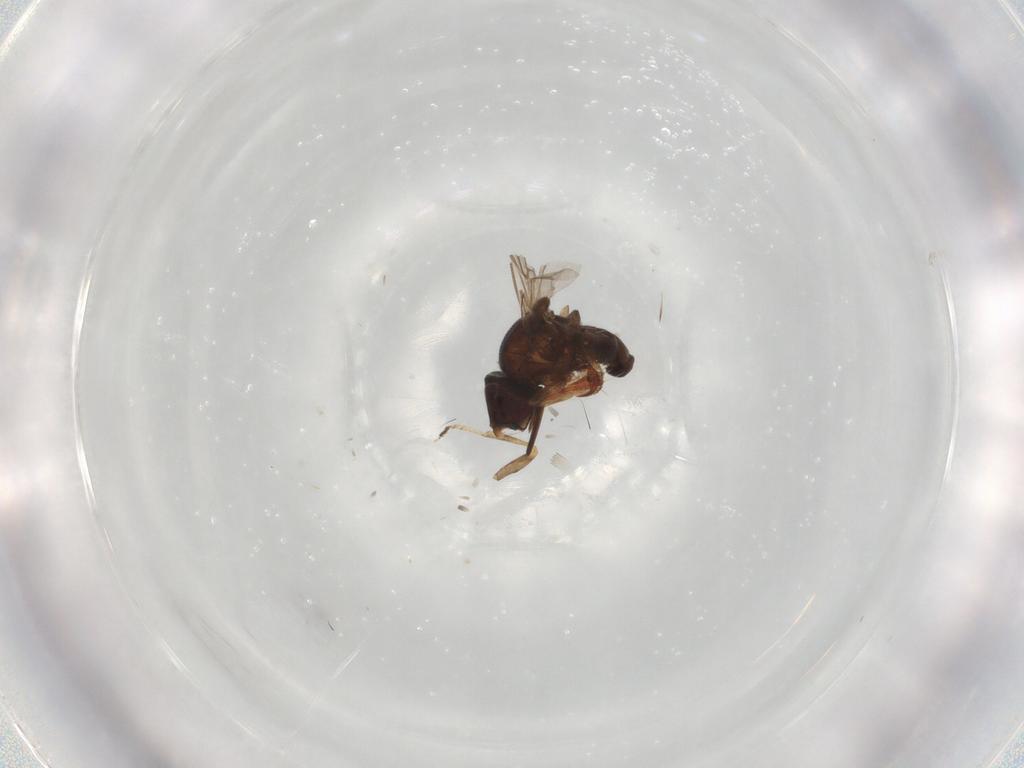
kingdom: Animalia
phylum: Arthropoda
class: Insecta
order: Diptera
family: Chloropidae
